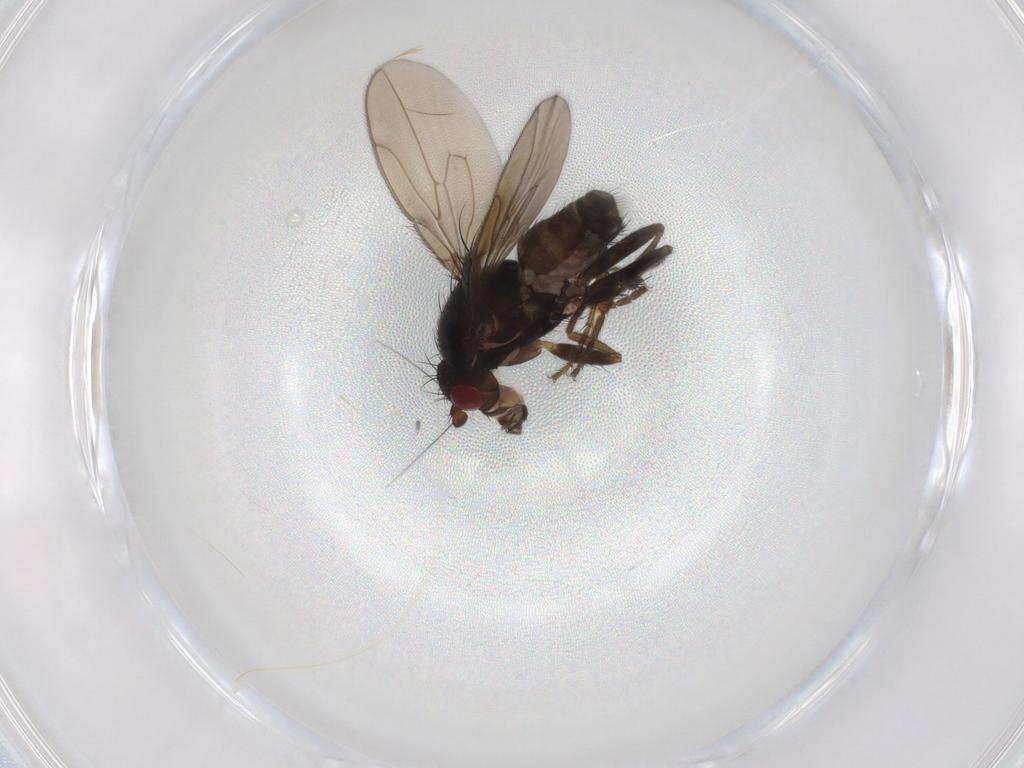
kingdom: Animalia
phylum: Arthropoda
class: Insecta
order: Diptera
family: Sphaeroceridae
